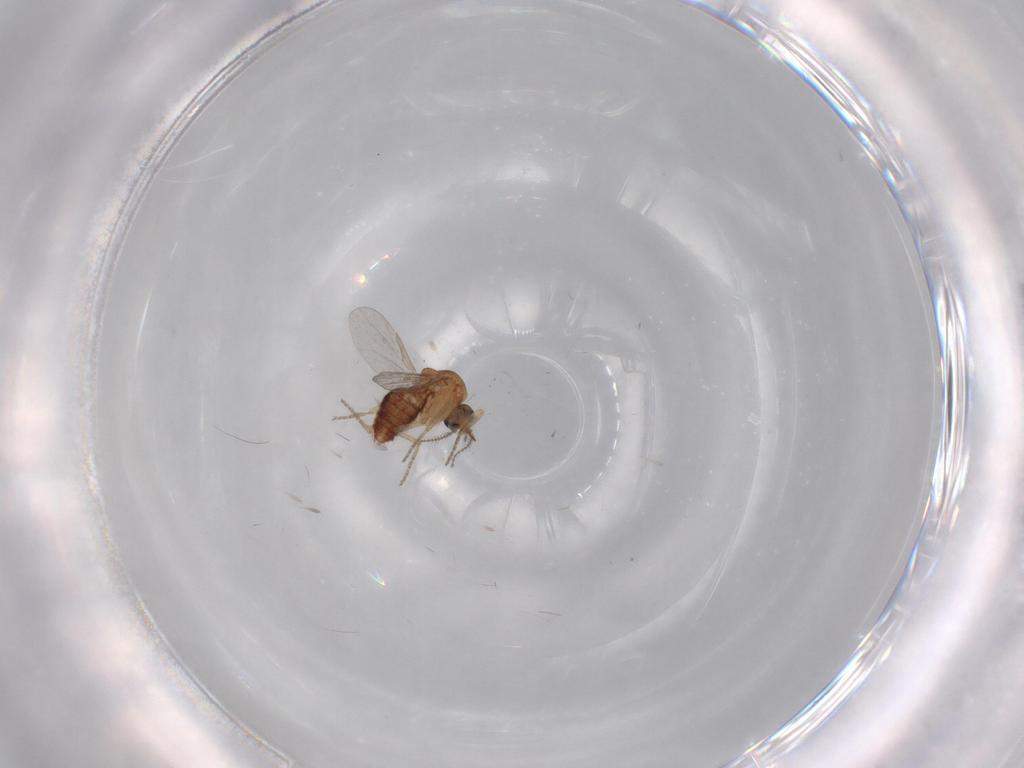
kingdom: Animalia
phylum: Arthropoda
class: Insecta
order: Diptera
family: Ceratopogonidae
